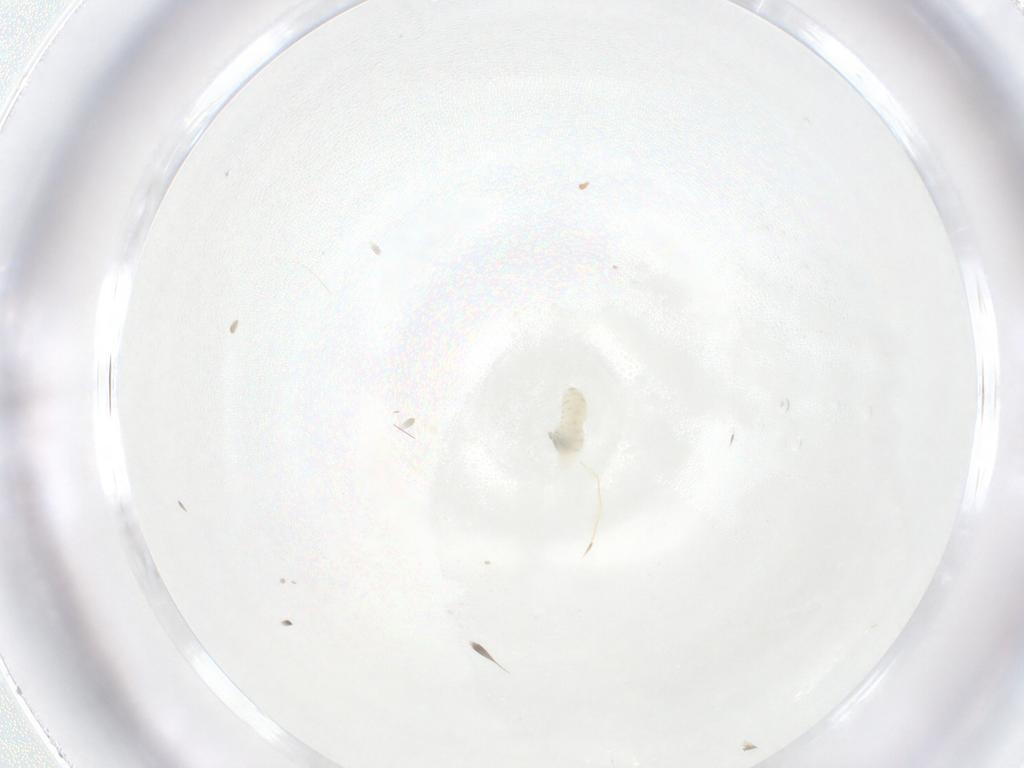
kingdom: Animalia
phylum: Arthropoda
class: Insecta
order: Diptera
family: Tachinidae
